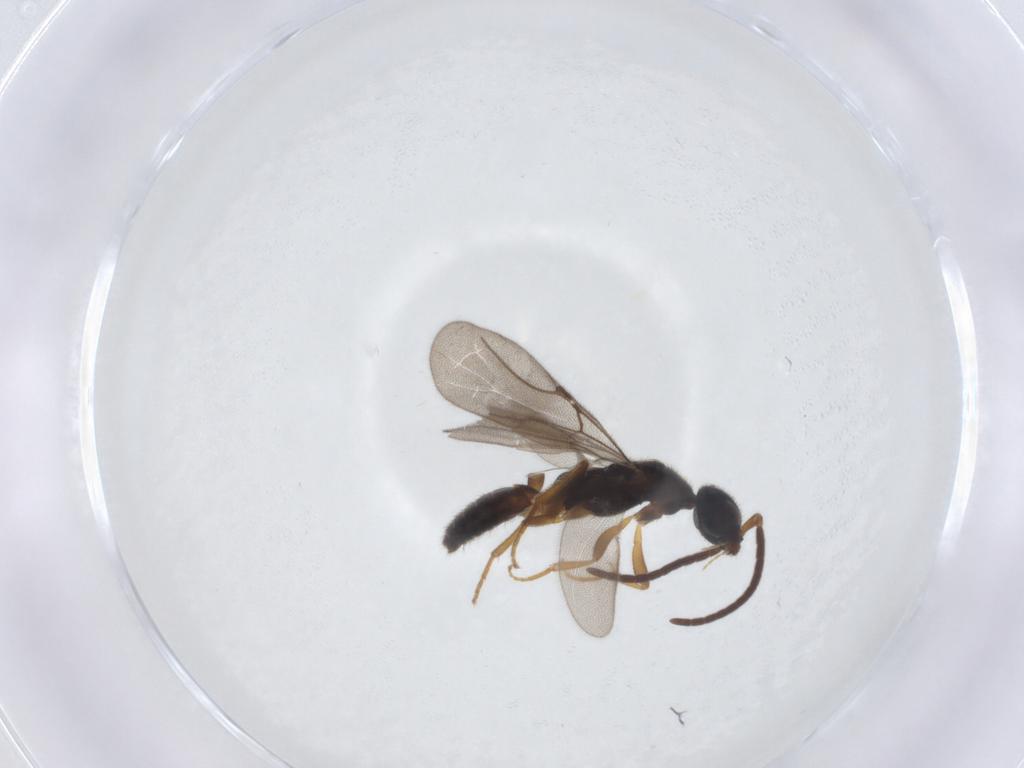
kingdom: Animalia
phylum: Arthropoda
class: Insecta
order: Hymenoptera
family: Bethylidae
